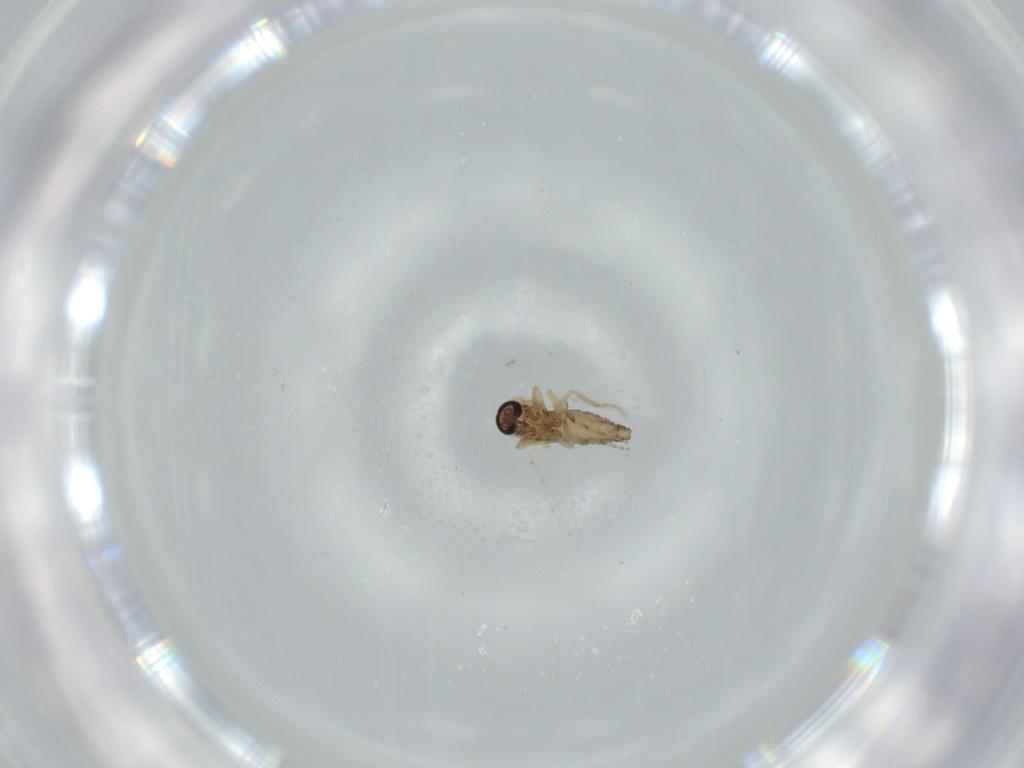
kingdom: Animalia
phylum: Arthropoda
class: Insecta
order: Diptera
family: Ceratopogonidae
